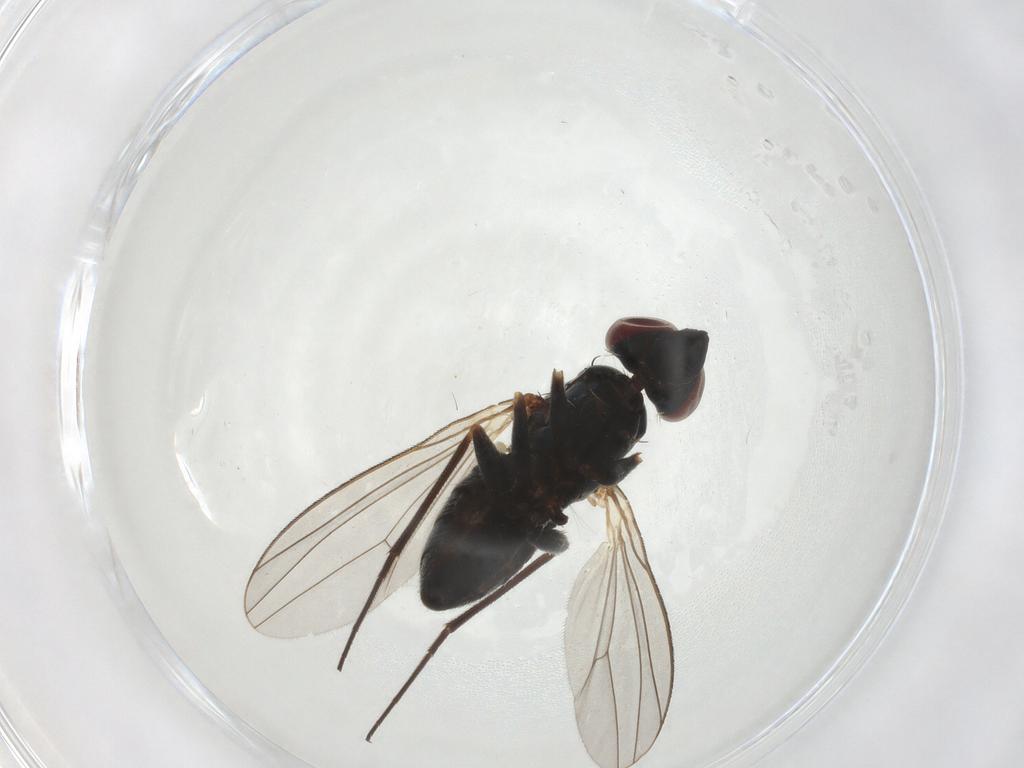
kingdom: Animalia
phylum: Arthropoda
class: Insecta
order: Diptera
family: Dolichopodidae
